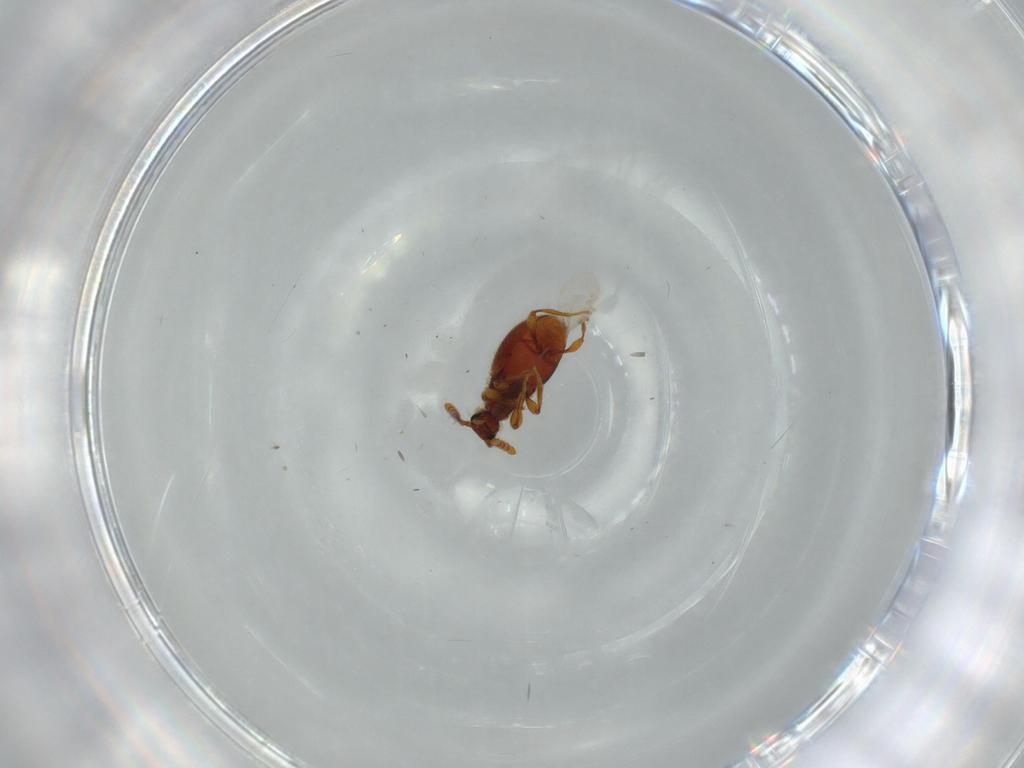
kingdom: Animalia
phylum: Arthropoda
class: Insecta
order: Coleoptera
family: Staphylinidae
